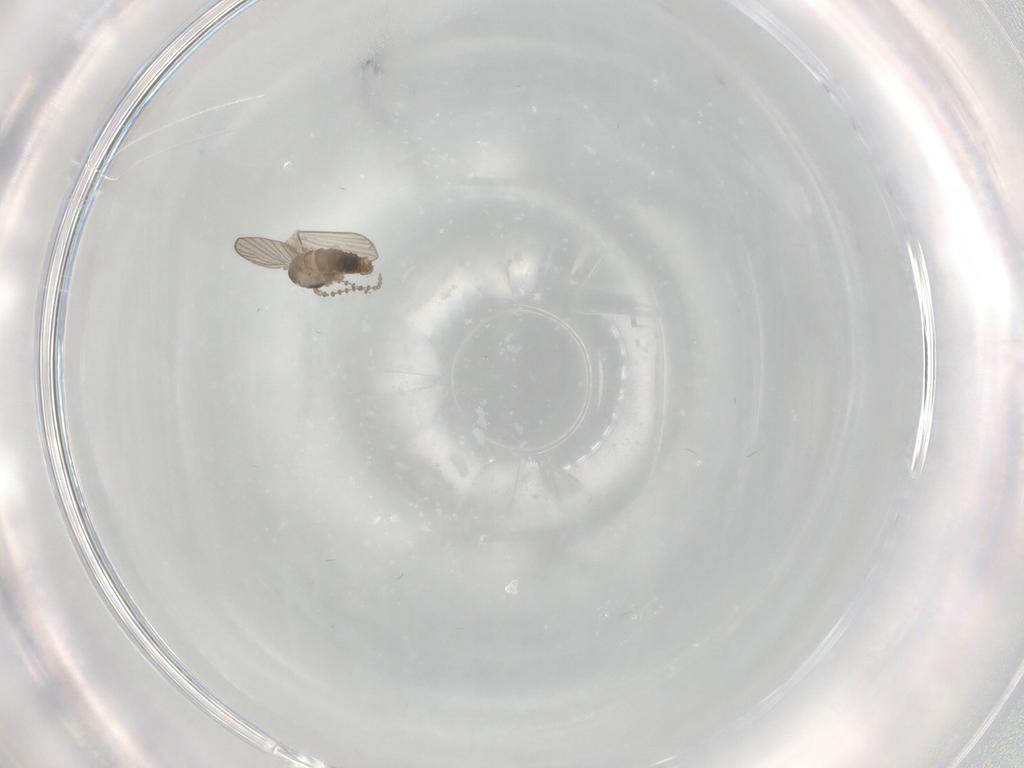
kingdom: Animalia
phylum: Arthropoda
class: Insecta
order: Diptera
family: Psychodidae
